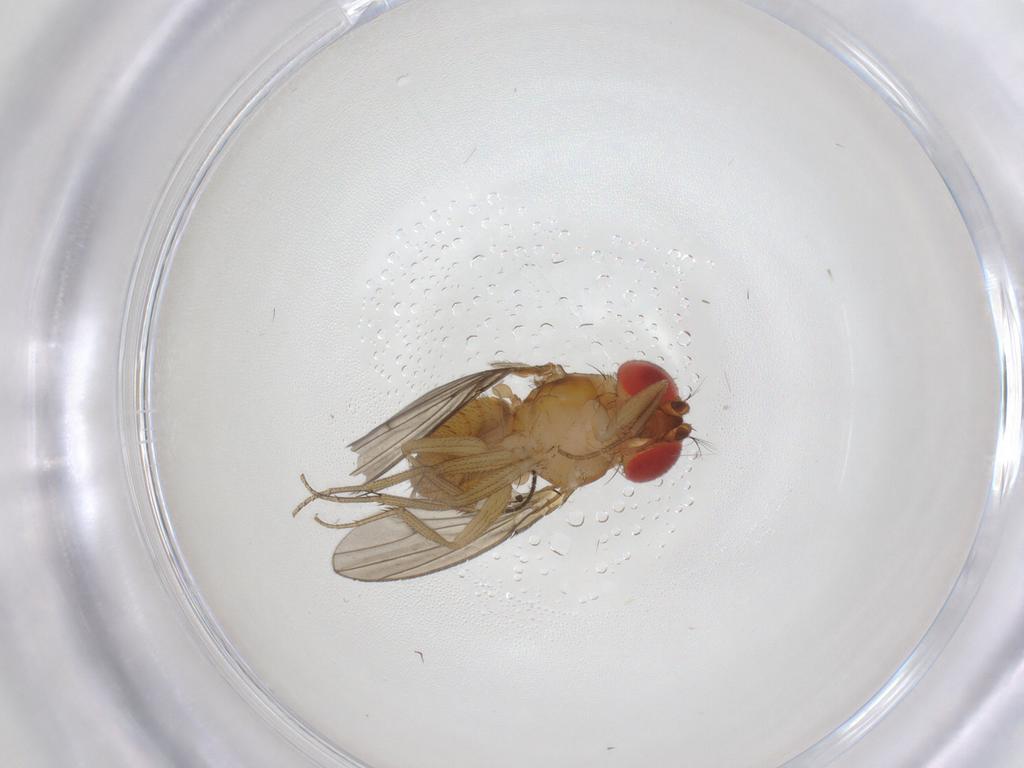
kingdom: Animalia
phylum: Arthropoda
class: Insecta
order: Diptera
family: Drosophilidae
